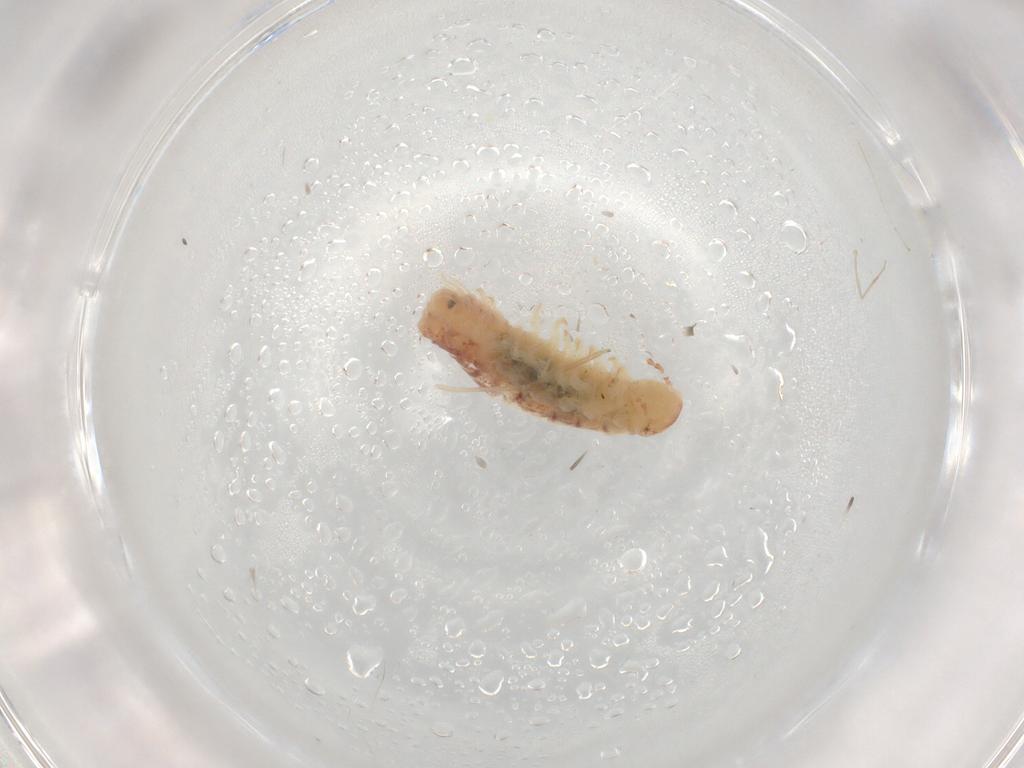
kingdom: Animalia
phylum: Arthropoda
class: Diplopoda
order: Polyxenida
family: Polyxenidae
